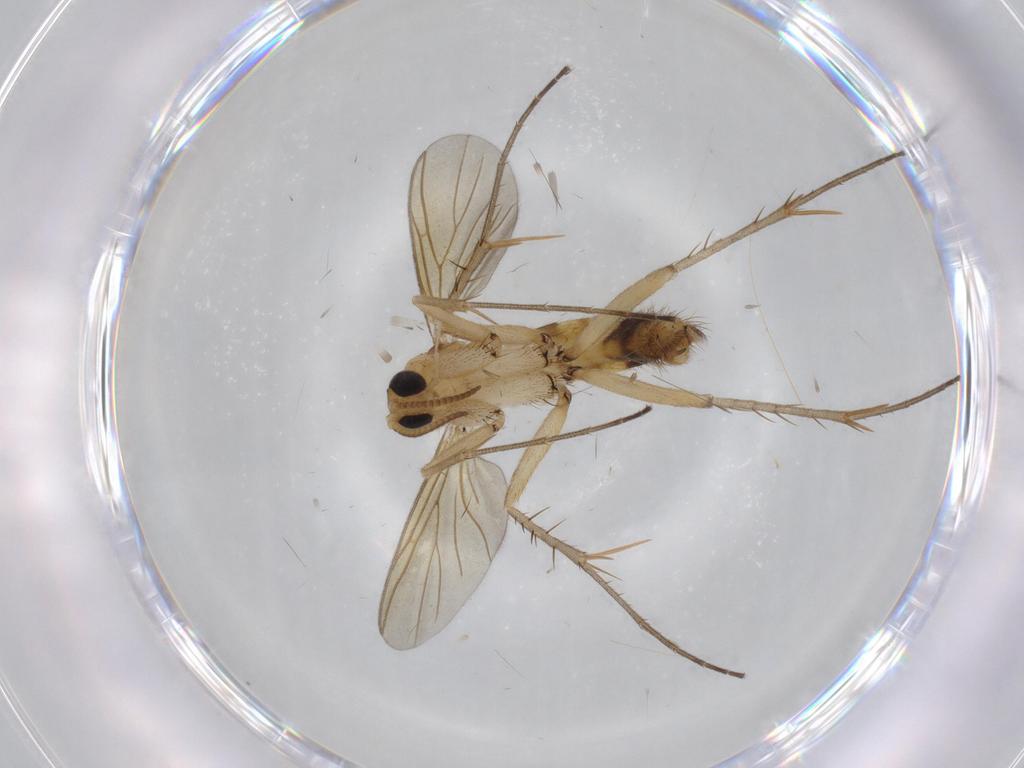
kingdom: Animalia
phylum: Arthropoda
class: Insecta
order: Diptera
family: Mycetophilidae
